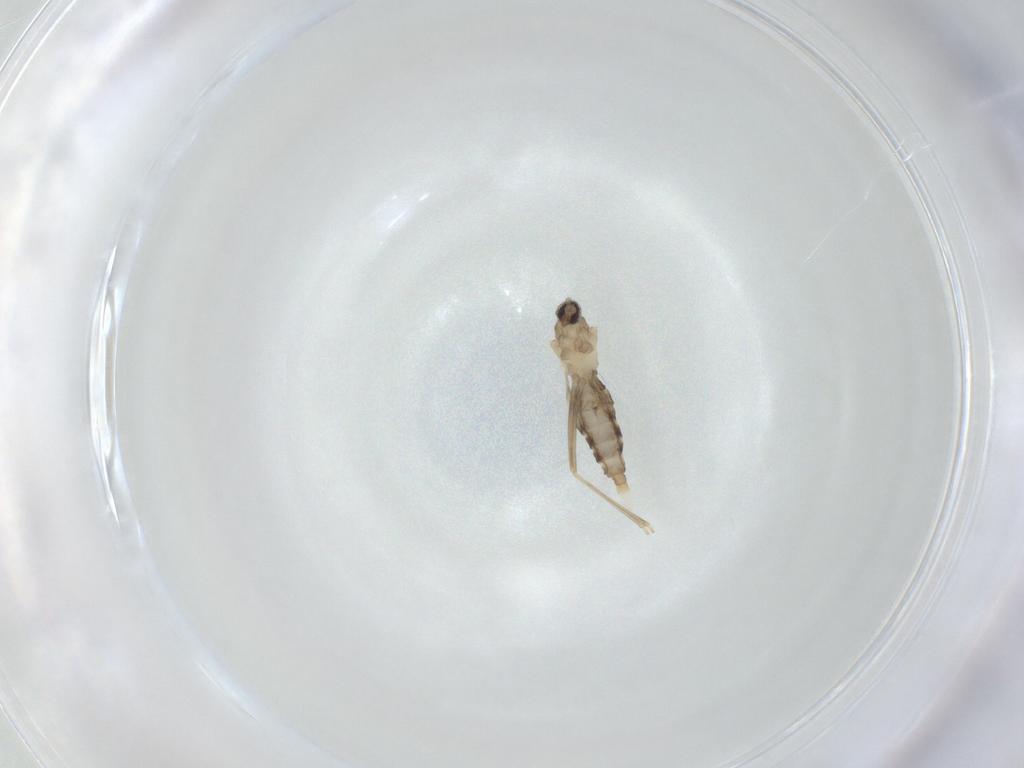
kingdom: Animalia
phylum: Arthropoda
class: Insecta
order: Diptera
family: Cecidomyiidae
